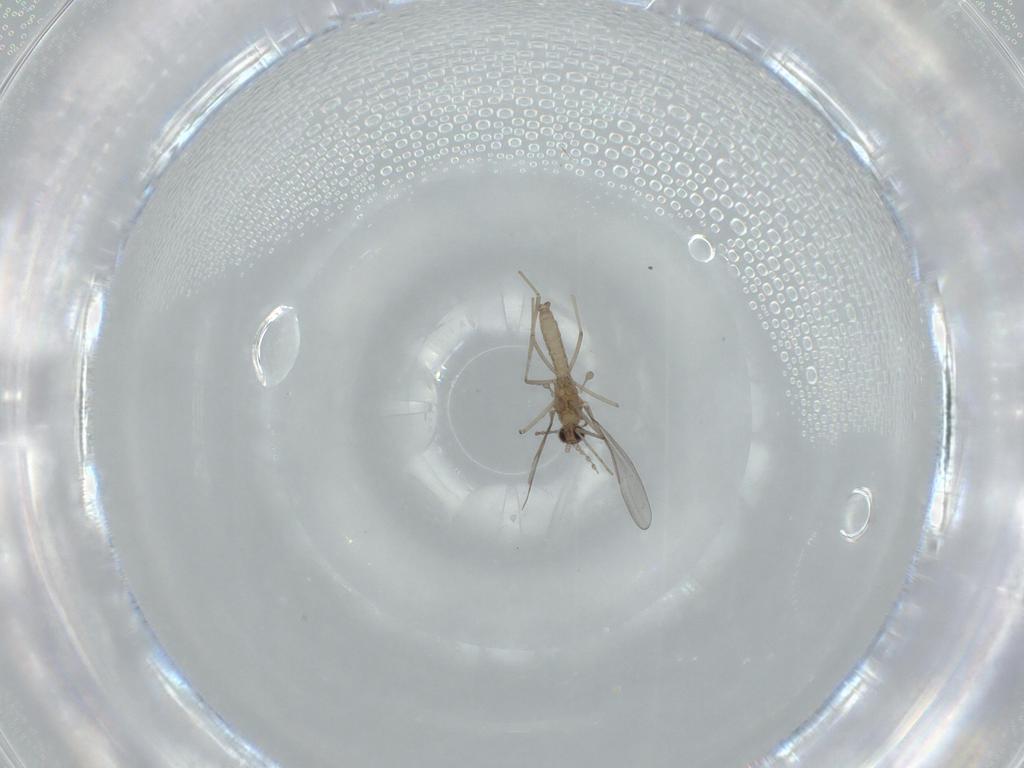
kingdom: Animalia
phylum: Arthropoda
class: Insecta
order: Diptera
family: Ceratopogonidae
